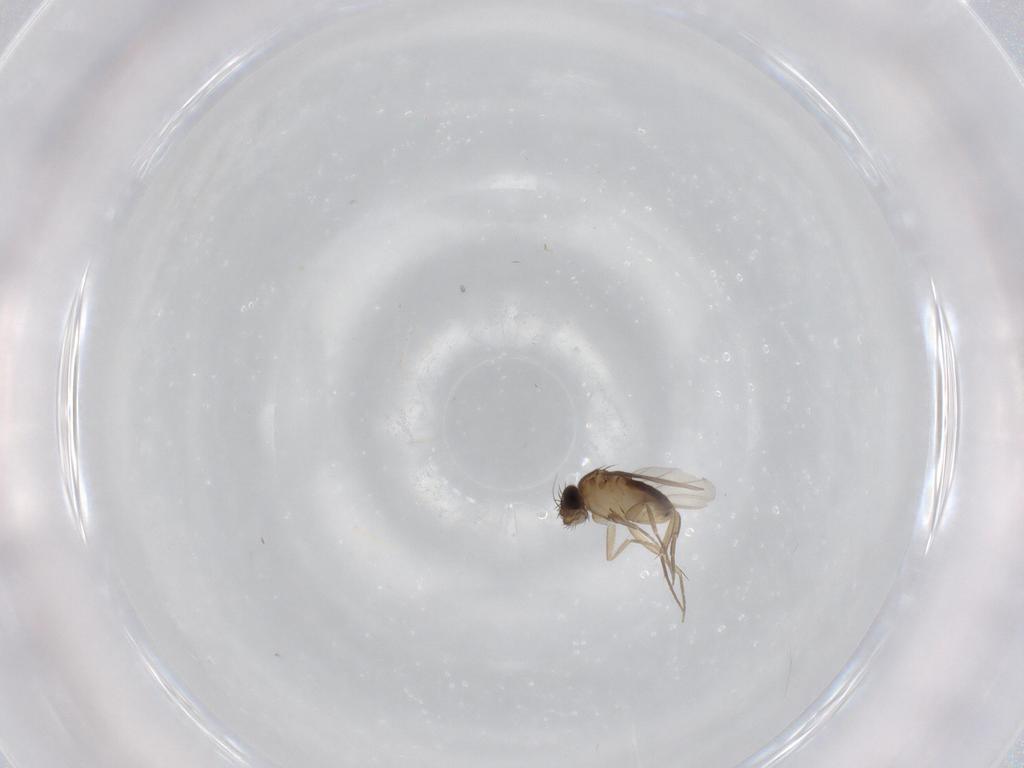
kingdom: Animalia
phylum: Arthropoda
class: Insecta
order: Diptera
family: Phoridae
